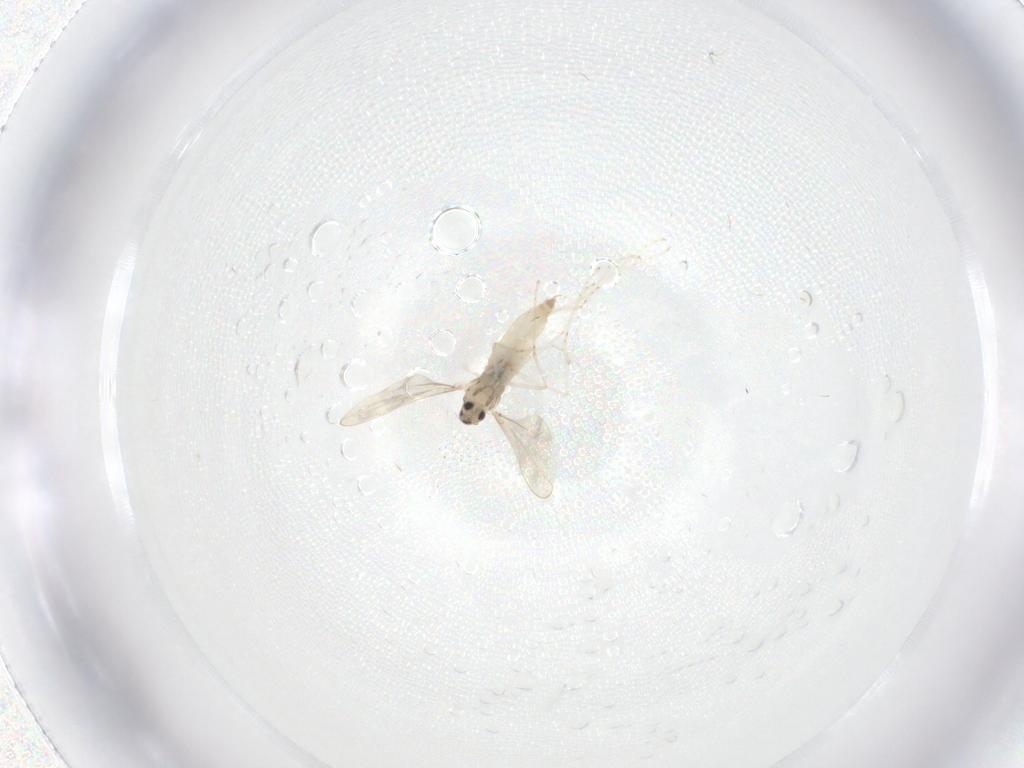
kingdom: Animalia
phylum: Arthropoda
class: Insecta
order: Diptera
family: Cecidomyiidae
